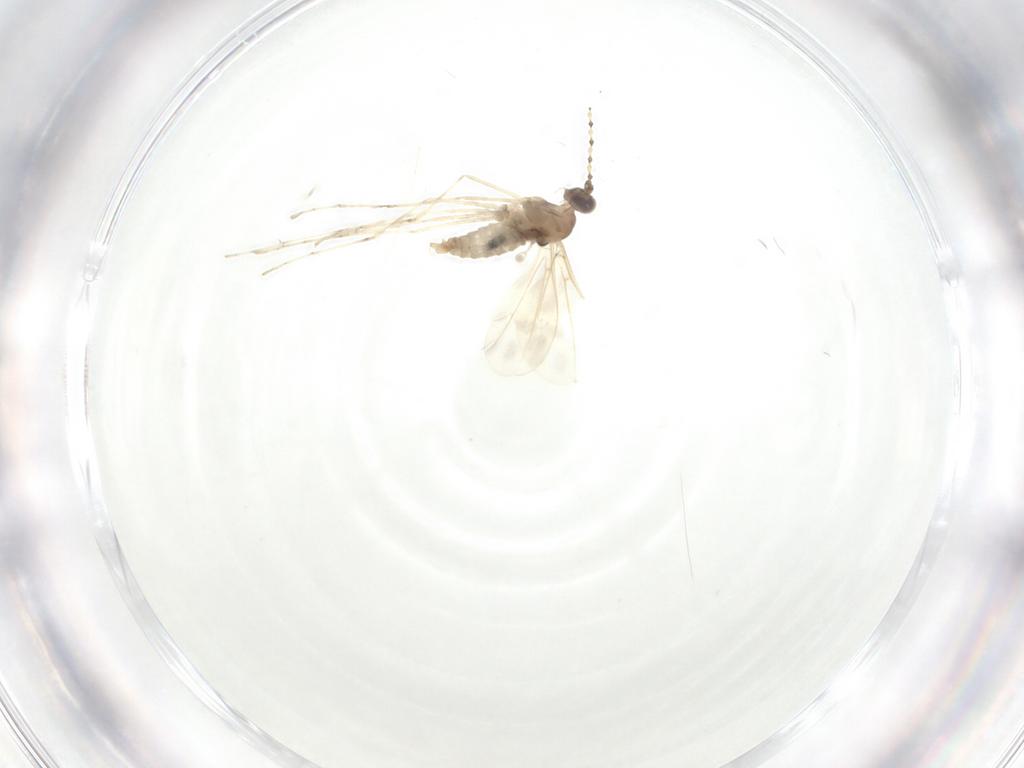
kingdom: Animalia
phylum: Arthropoda
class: Insecta
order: Diptera
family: Cecidomyiidae
